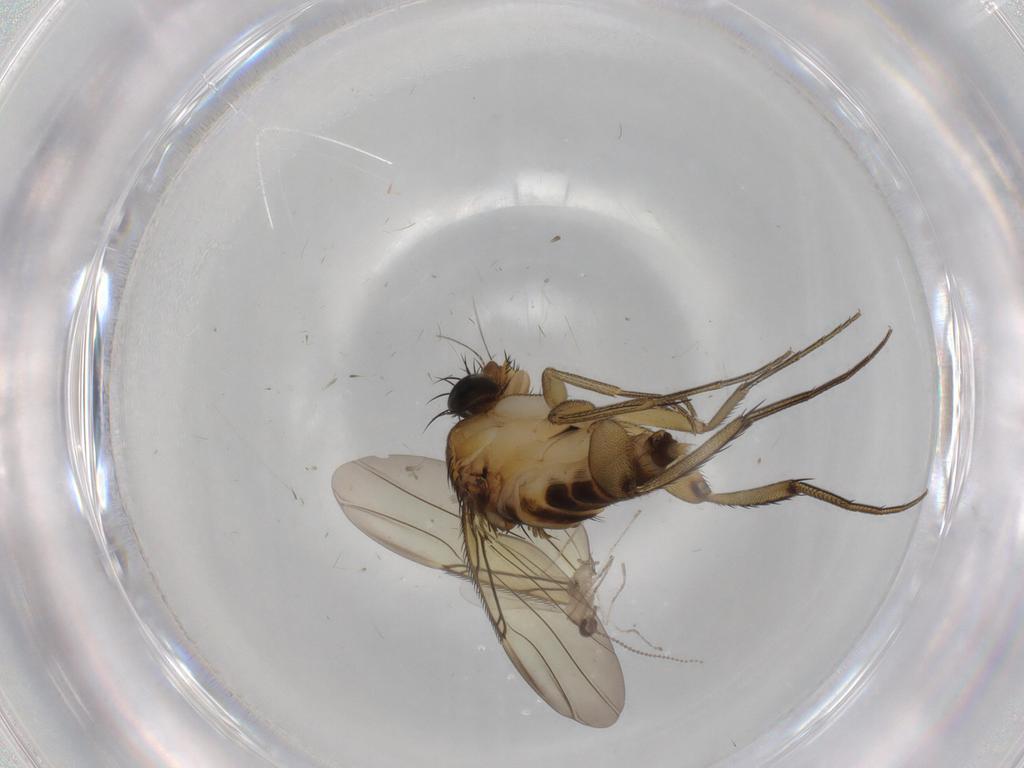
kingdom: Animalia
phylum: Arthropoda
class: Insecta
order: Diptera
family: Phoridae
